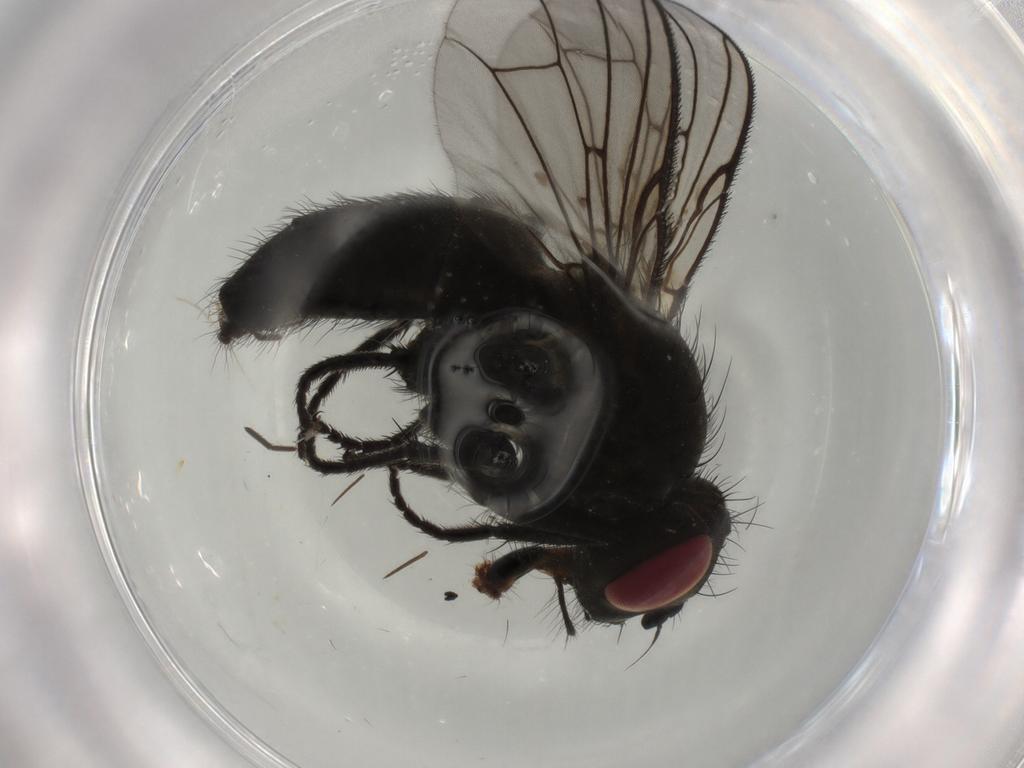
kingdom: Animalia
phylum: Arthropoda
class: Insecta
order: Diptera
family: Muscidae
